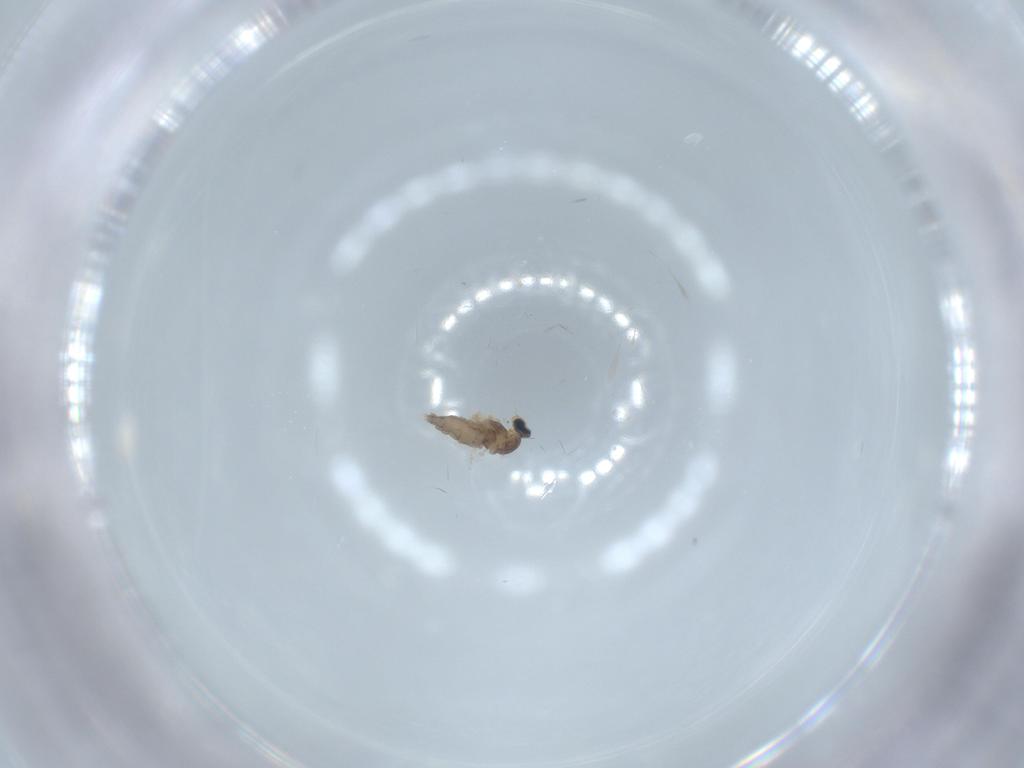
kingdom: Animalia
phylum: Arthropoda
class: Insecta
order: Diptera
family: Cecidomyiidae
